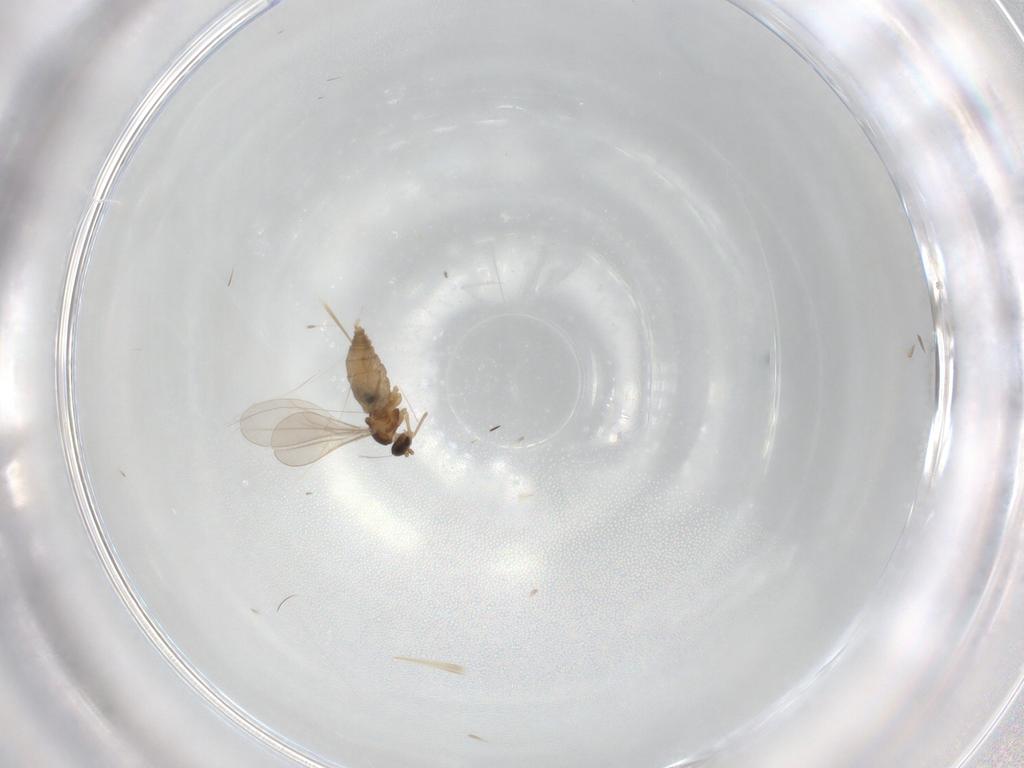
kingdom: Animalia
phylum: Arthropoda
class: Insecta
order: Diptera
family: Cecidomyiidae
